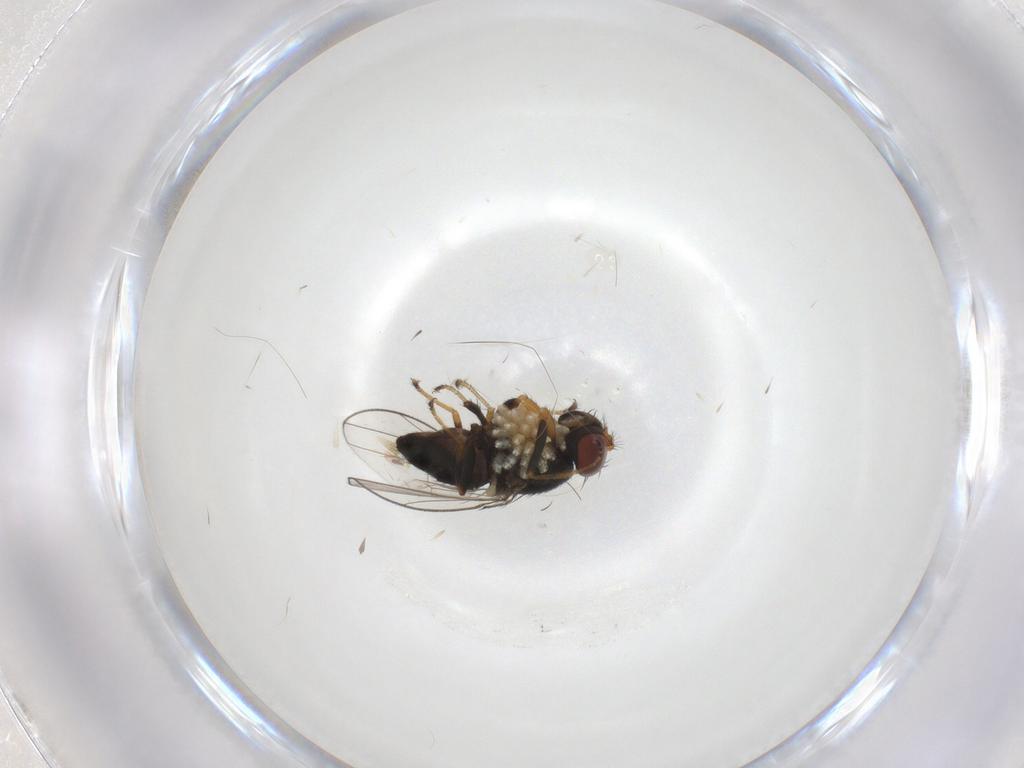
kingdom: Animalia
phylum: Arthropoda
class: Insecta
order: Diptera
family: Ephydridae
